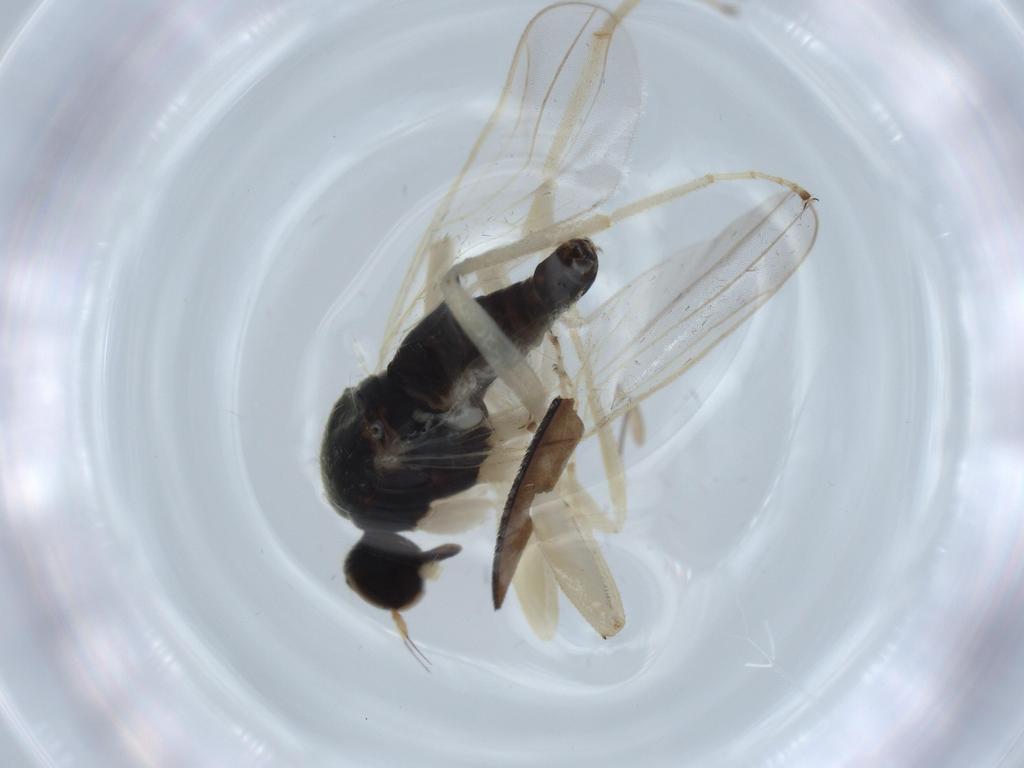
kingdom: Animalia
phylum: Arthropoda
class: Insecta
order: Diptera
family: Hybotidae
